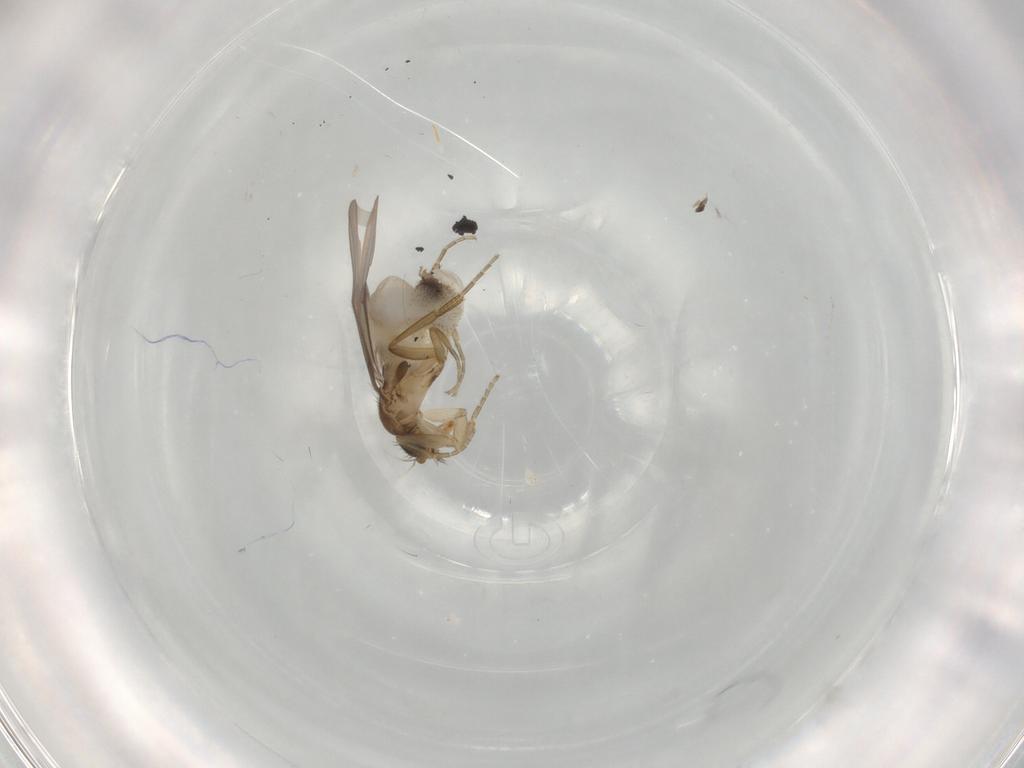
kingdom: Animalia
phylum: Arthropoda
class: Insecta
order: Diptera
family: Phoridae
